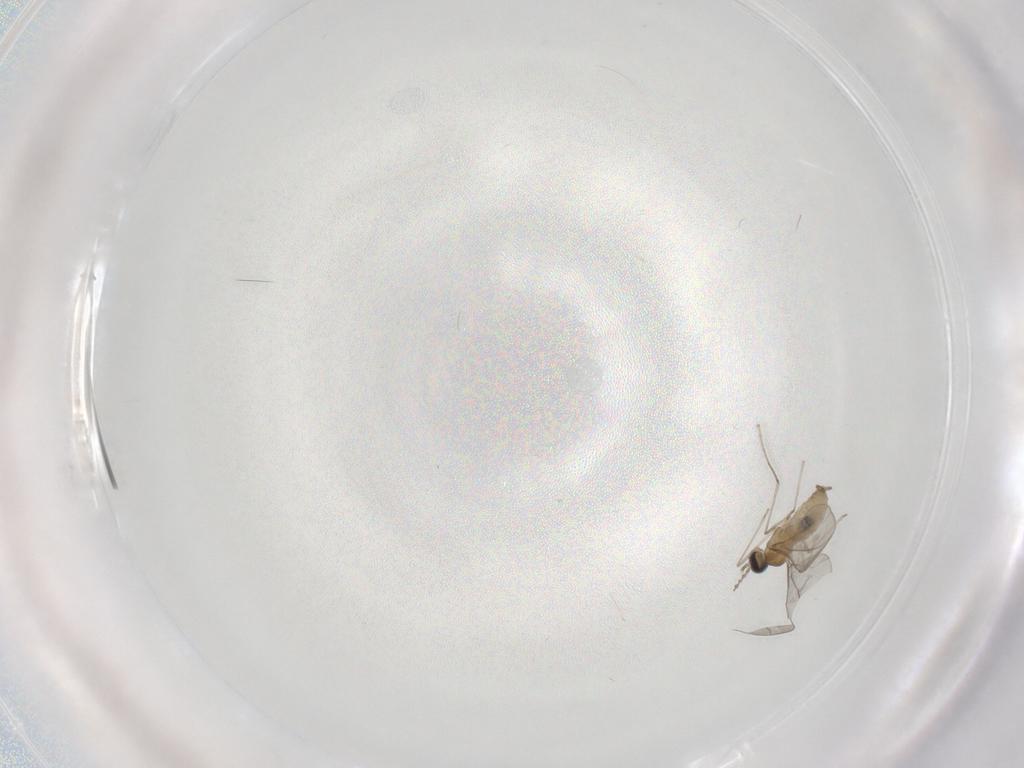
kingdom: Animalia
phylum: Arthropoda
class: Insecta
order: Diptera
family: Cecidomyiidae
